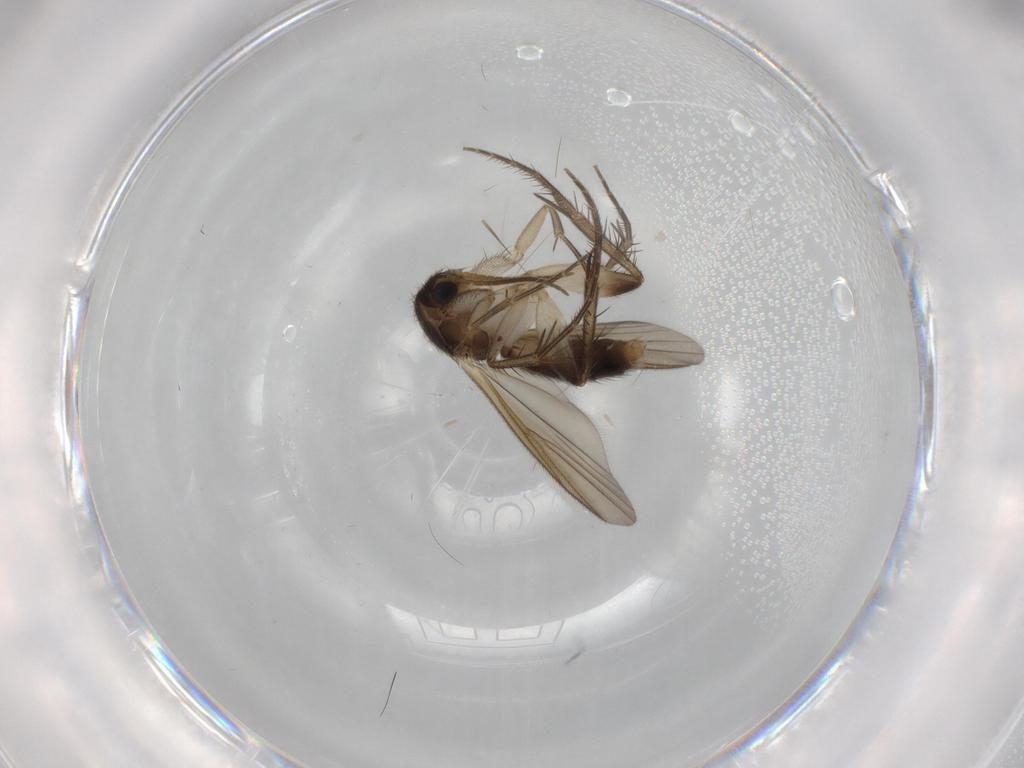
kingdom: Animalia
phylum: Arthropoda
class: Insecta
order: Diptera
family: Mycetophilidae
